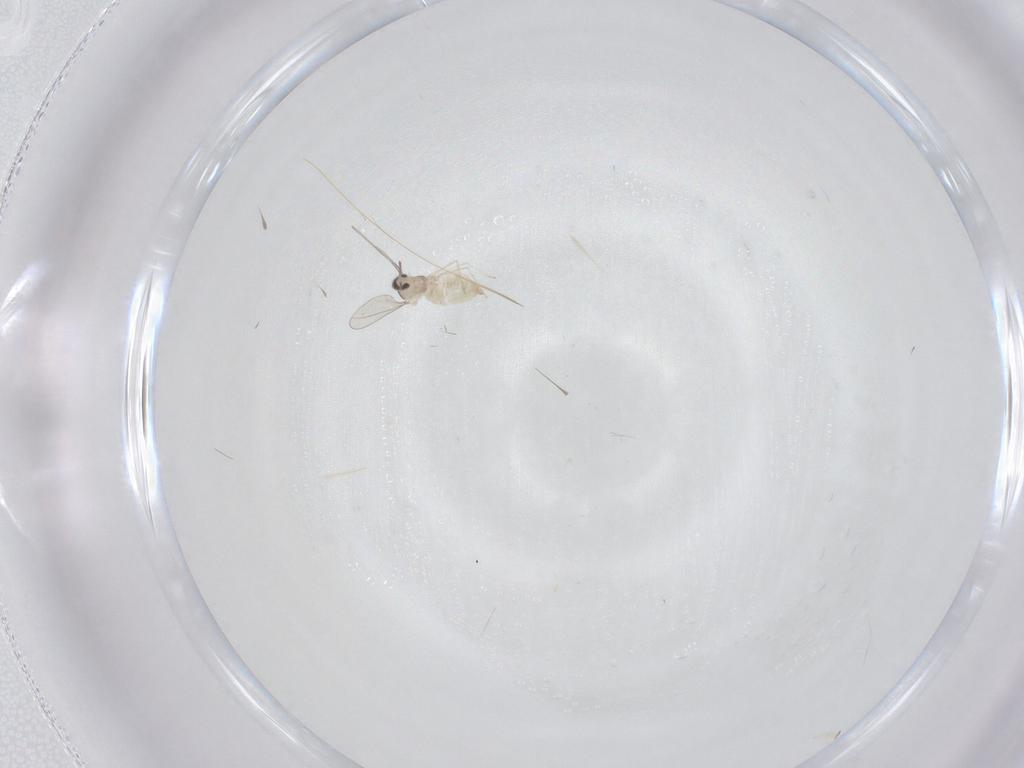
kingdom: Animalia
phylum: Arthropoda
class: Insecta
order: Diptera
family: Cecidomyiidae
